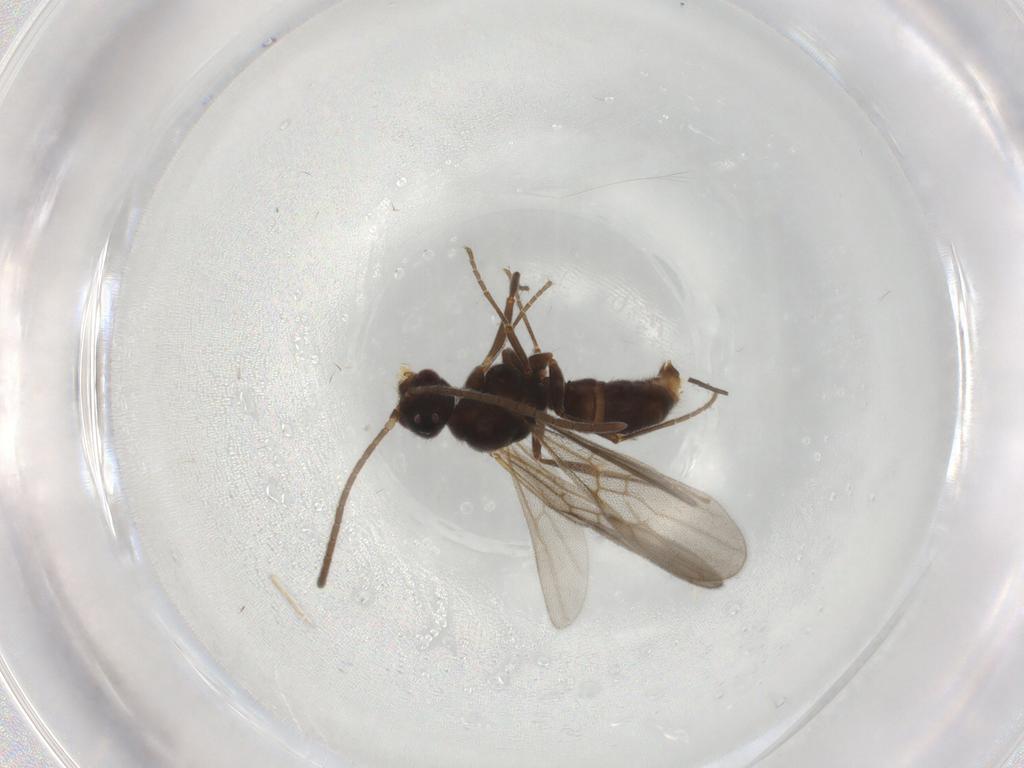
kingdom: Animalia
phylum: Arthropoda
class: Insecta
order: Hymenoptera
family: Formicidae
